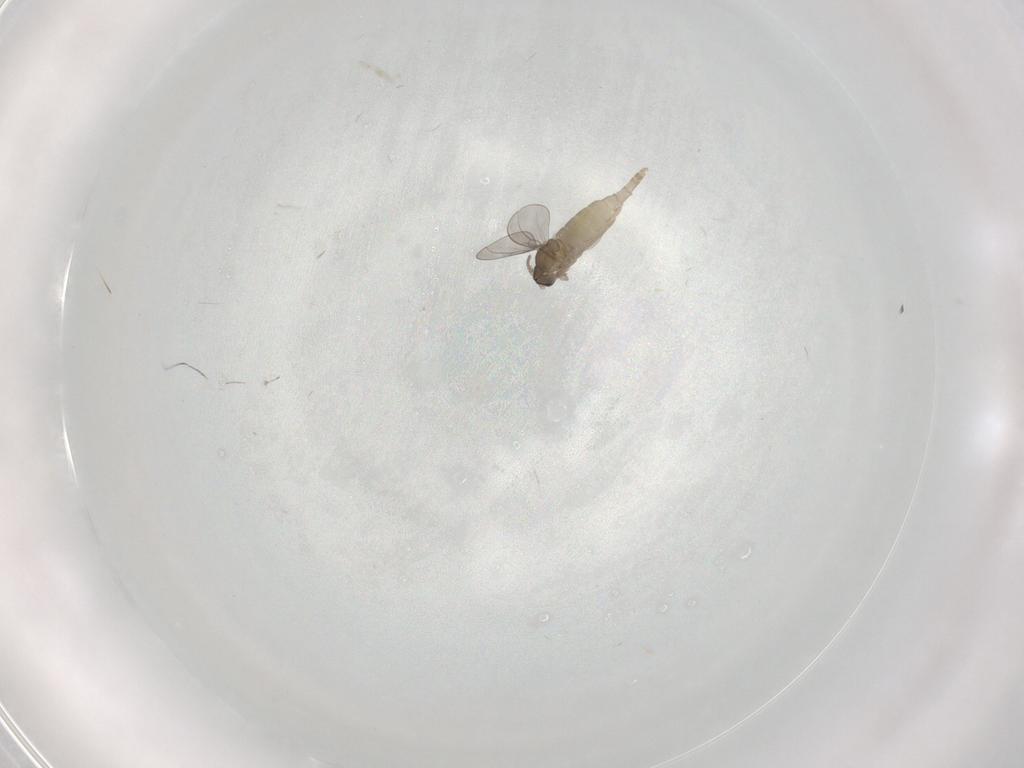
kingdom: Animalia
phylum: Arthropoda
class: Insecta
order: Diptera
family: Cecidomyiidae
